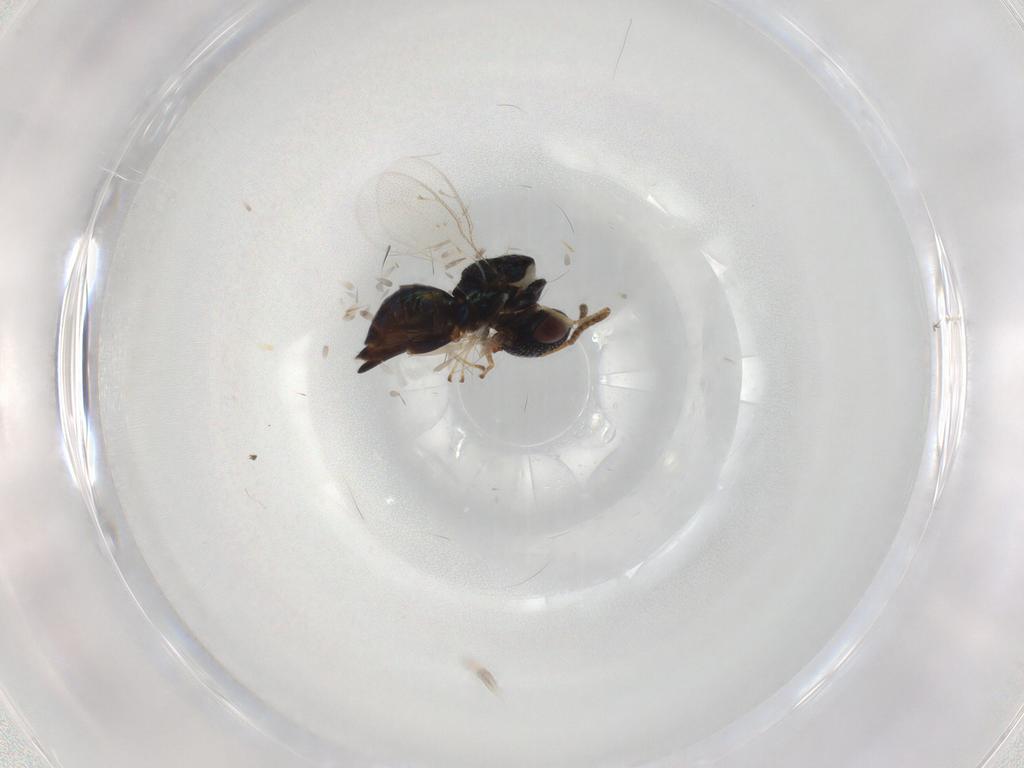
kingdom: Animalia
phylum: Arthropoda
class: Insecta
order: Hymenoptera
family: Pteromalidae
